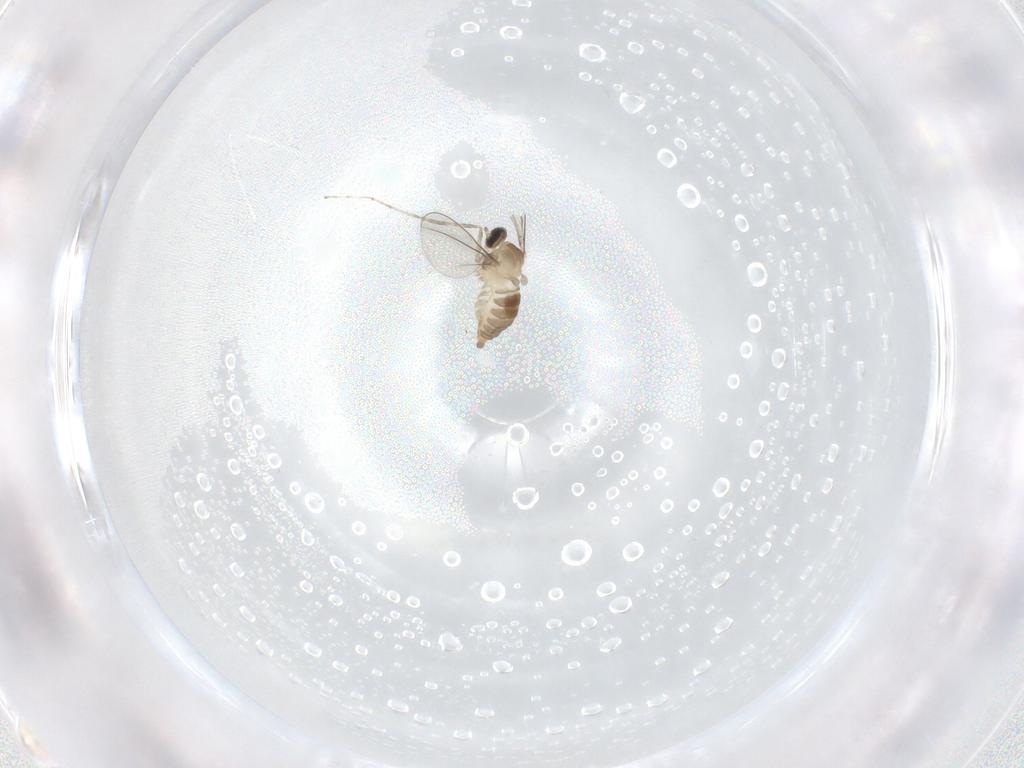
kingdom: Animalia
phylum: Arthropoda
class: Insecta
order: Diptera
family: Cecidomyiidae
